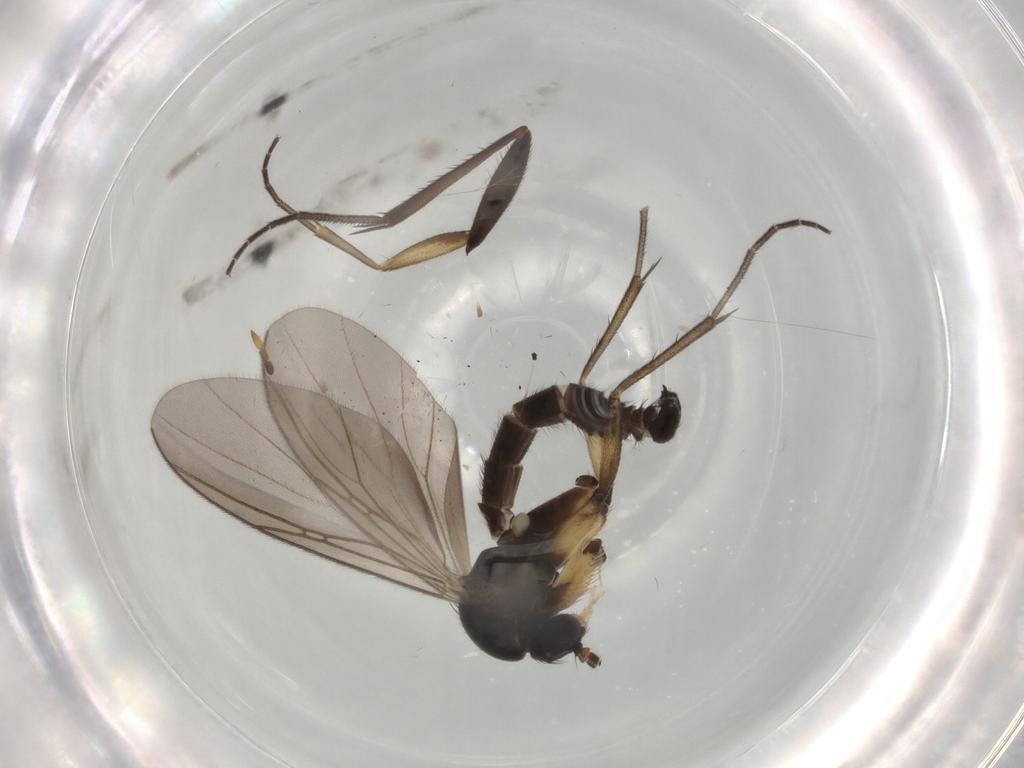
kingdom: Animalia
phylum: Arthropoda
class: Insecta
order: Diptera
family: Mycetophilidae
